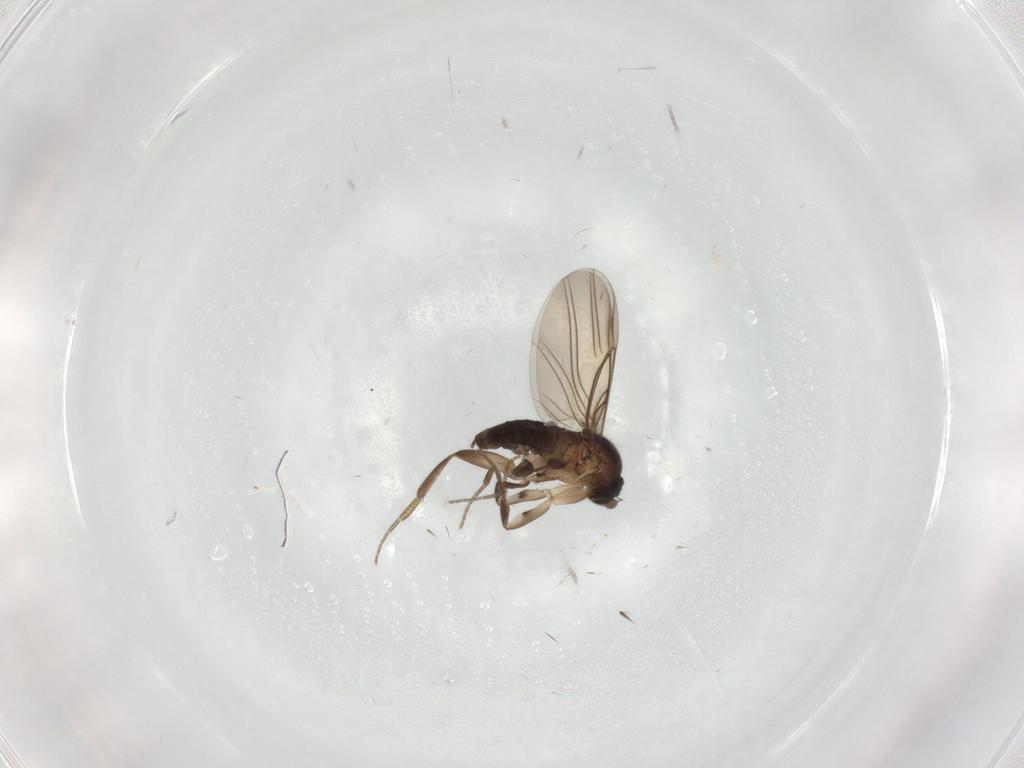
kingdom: Animalia
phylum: Arthropoda
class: Insecta
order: Diptera
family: Phoridae
